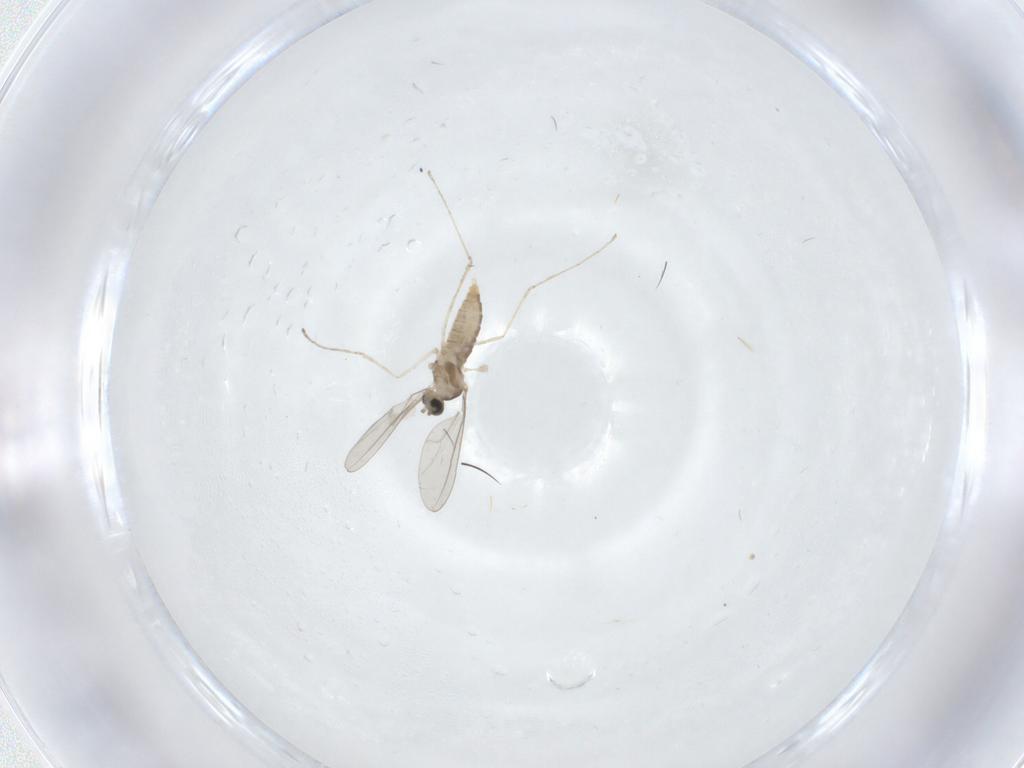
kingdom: Animalia
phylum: Arthropoda
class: Insecta
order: Diptera
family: Cecidomyiidae
